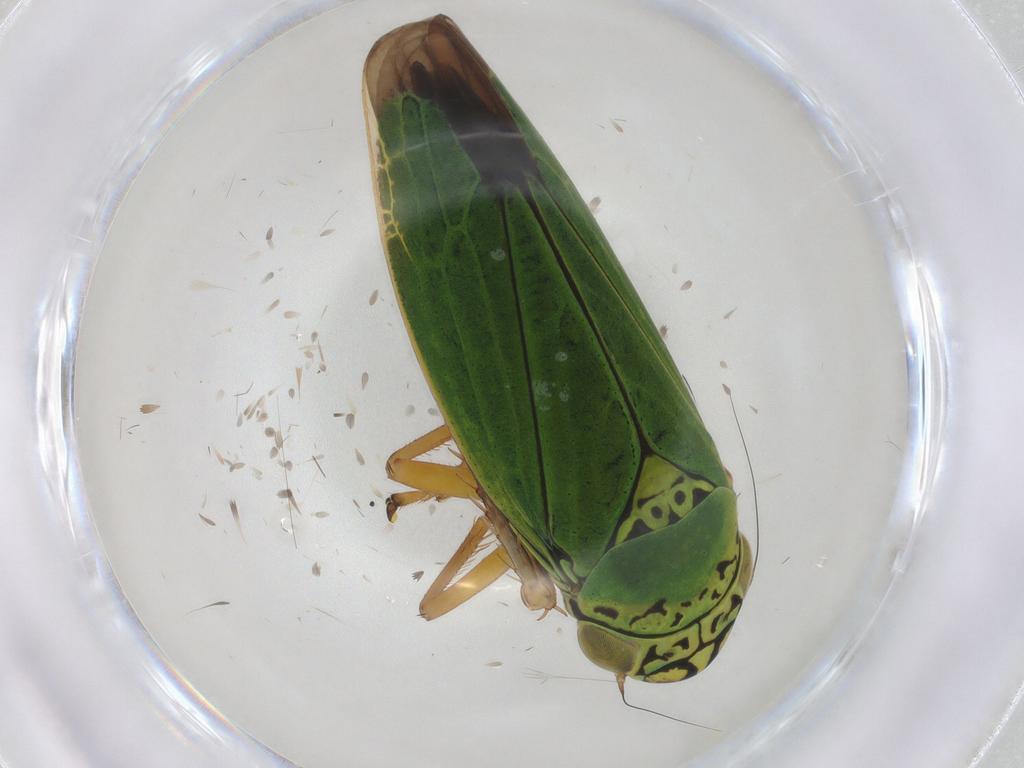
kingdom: Animalia
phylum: Arthropoda
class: Insecta
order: Hemiptera
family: Cicadellidae
